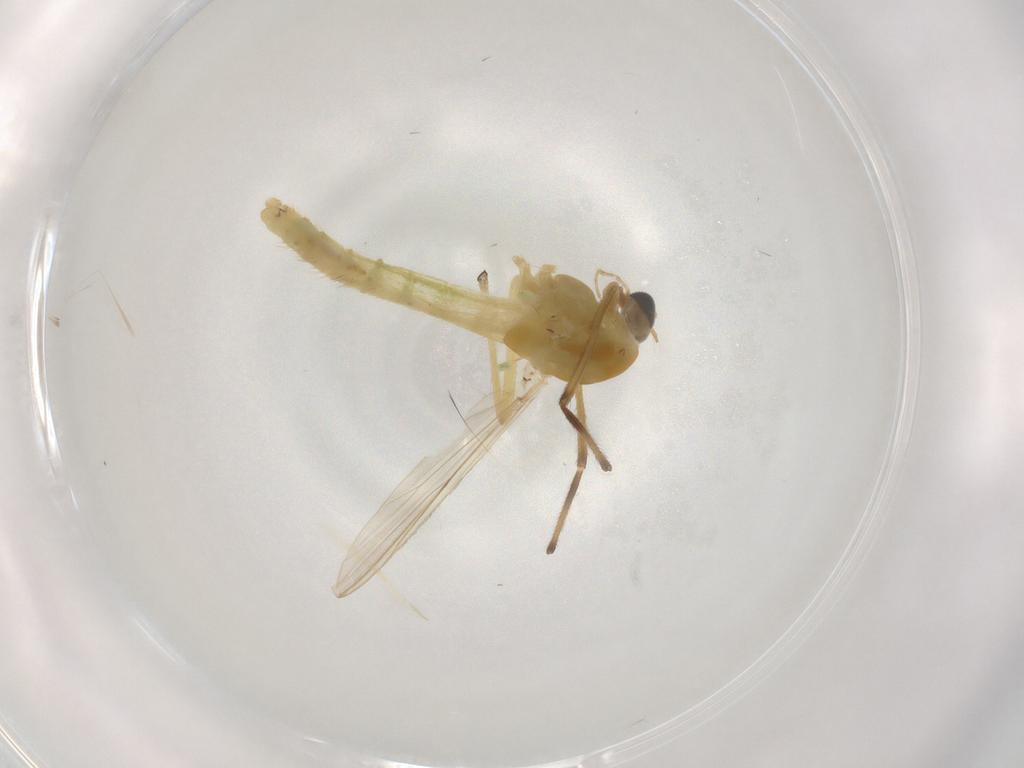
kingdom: Animalia
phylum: Arthropoda
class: Insecta
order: Diptera
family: Chironomidae
